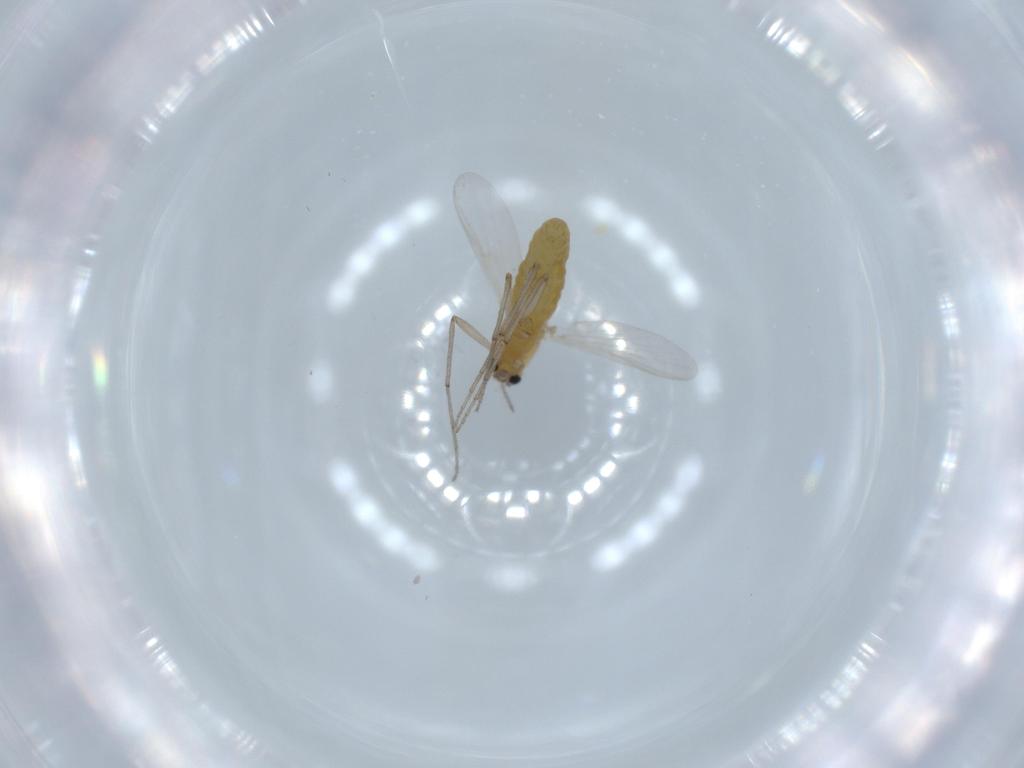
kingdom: Animalia
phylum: Arthropoda
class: Insecta
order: Diptera
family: Chironomidae
